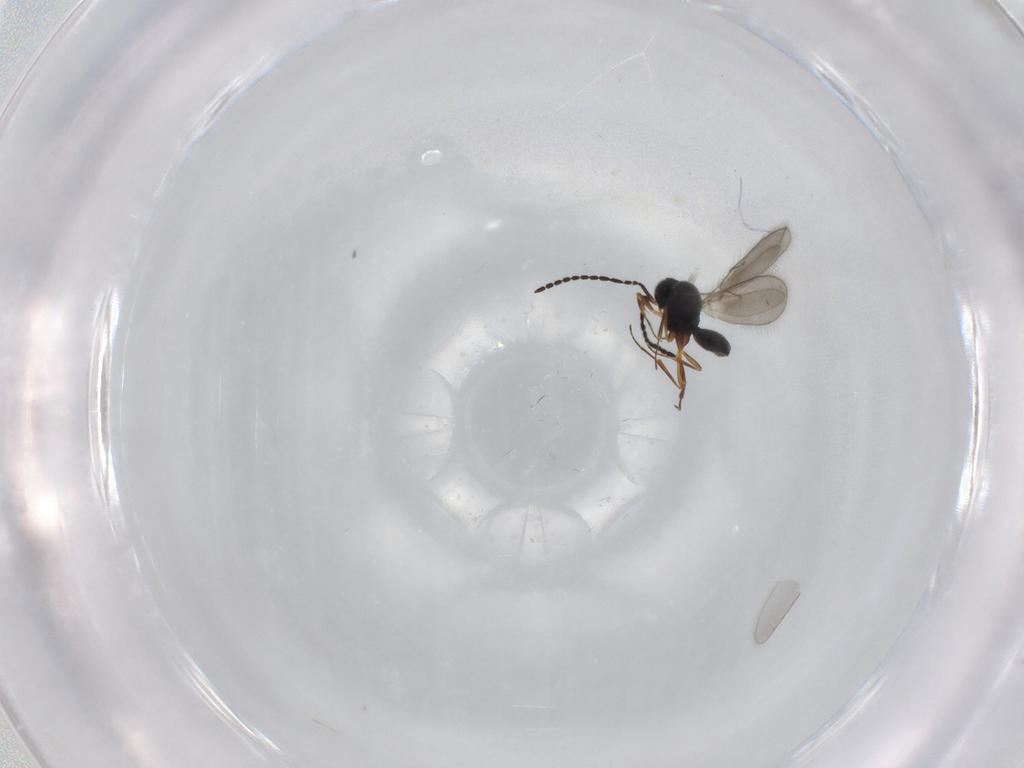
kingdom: Animalia
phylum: Arthropoda
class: Insecta
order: Hymenoptera
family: Scelionidae
